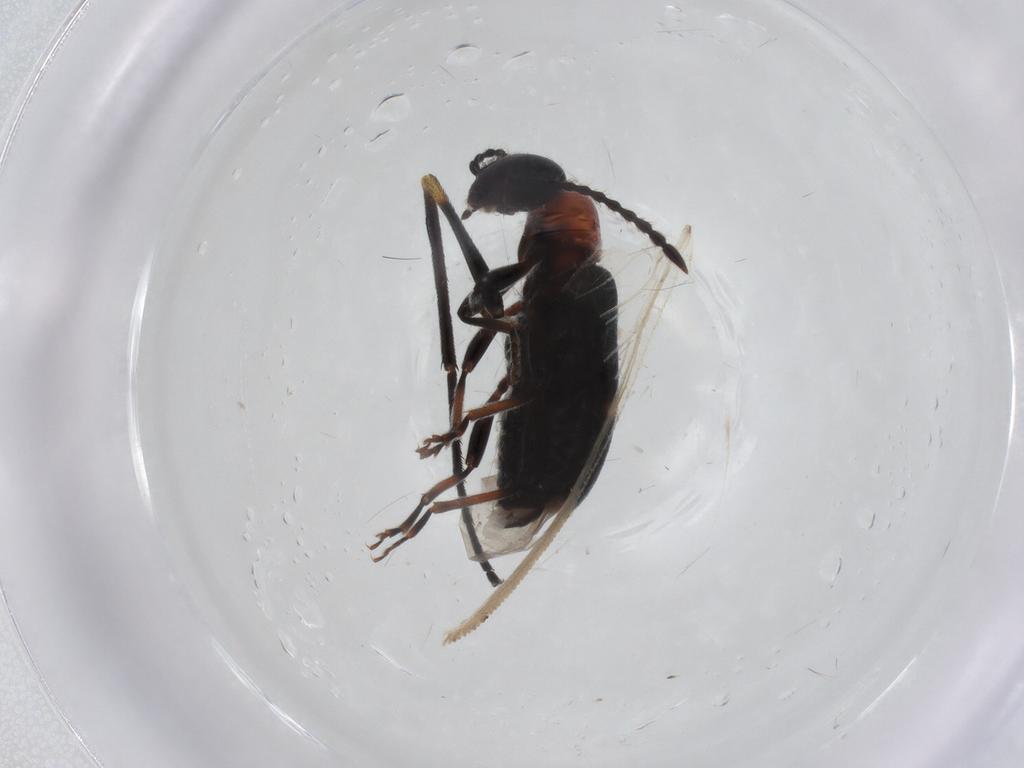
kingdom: Animalia
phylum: Arthropoda
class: Insecta
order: Coleoptera
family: Anthicidae
